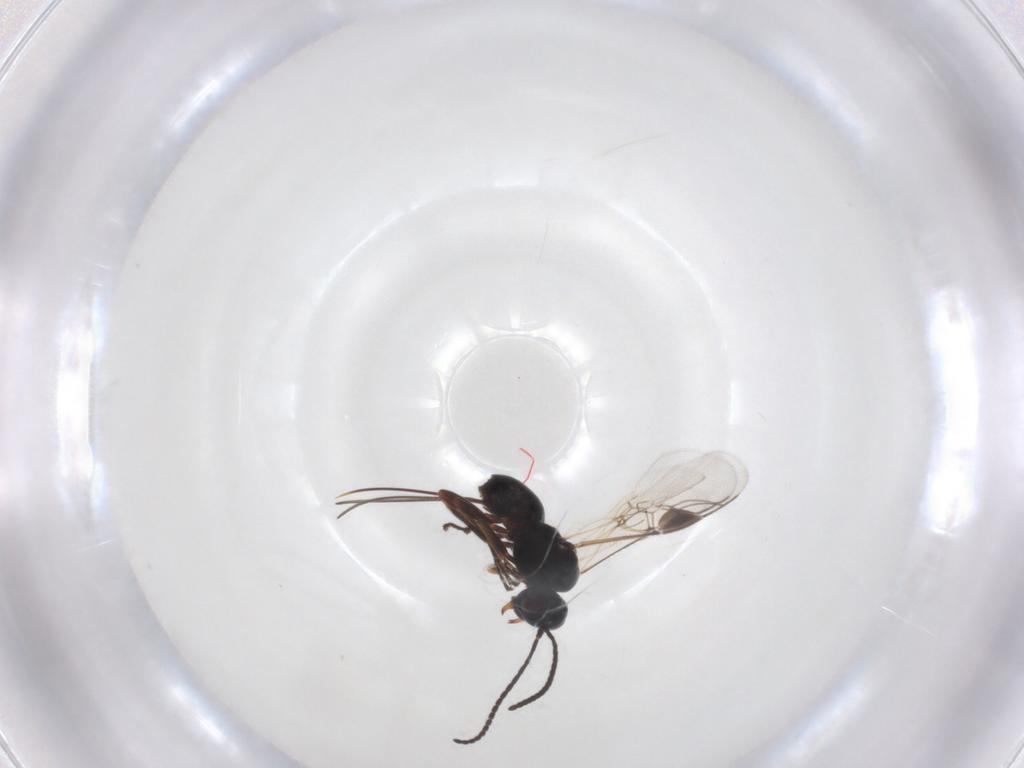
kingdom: Animalia
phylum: Arthropoda
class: Insecta
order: Hymenoptera
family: Braconidae
